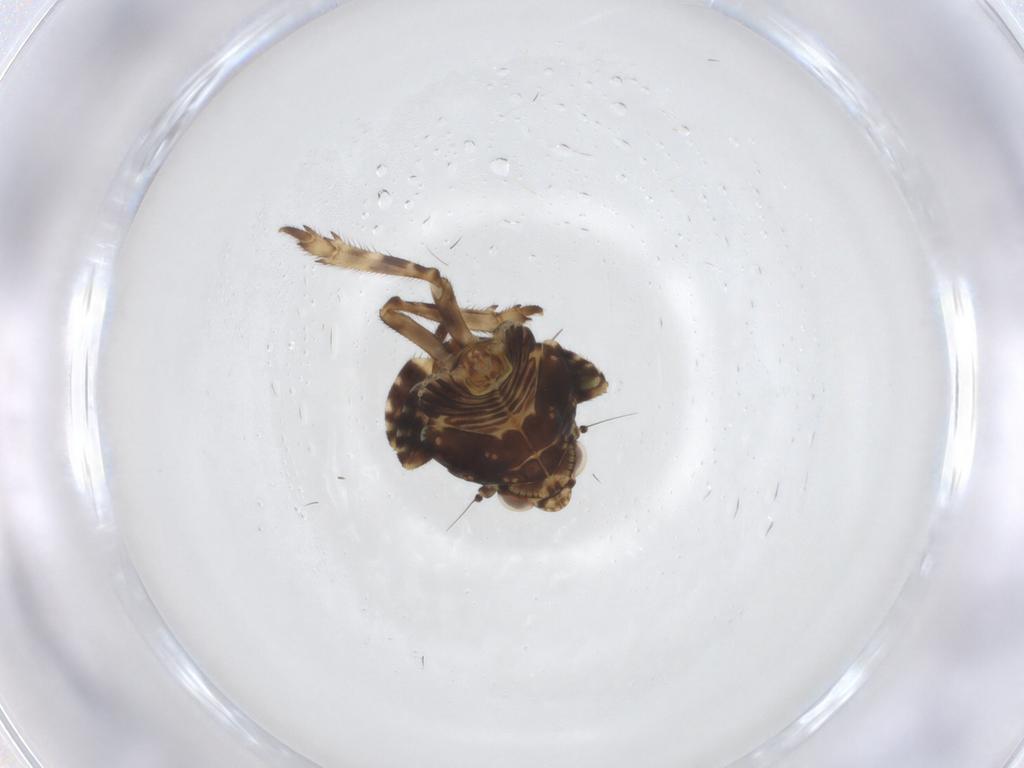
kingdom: Animalia
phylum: Arthropoda
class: Insecta
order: Hemiptera
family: Eurybrachidae
